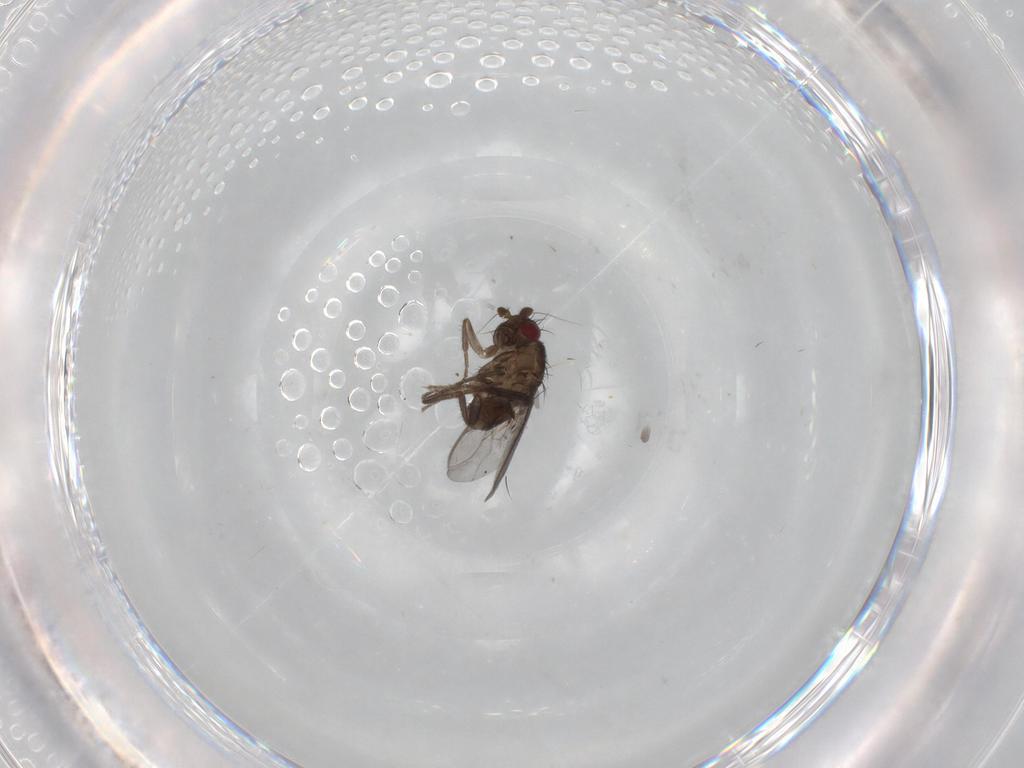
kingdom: Animalia
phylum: Arthropoda
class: Insecta
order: Diptera
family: Sphaeroceridae
